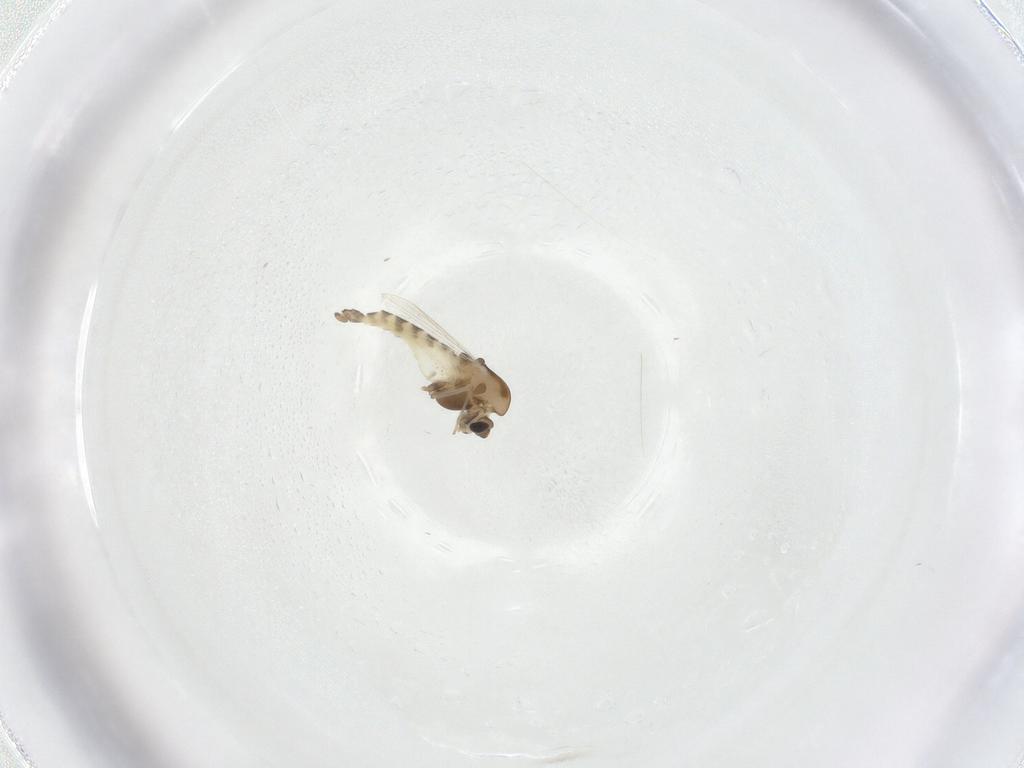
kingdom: Animalia
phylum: Arthropoda
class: Insecta
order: Diptera
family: Chironomidae
